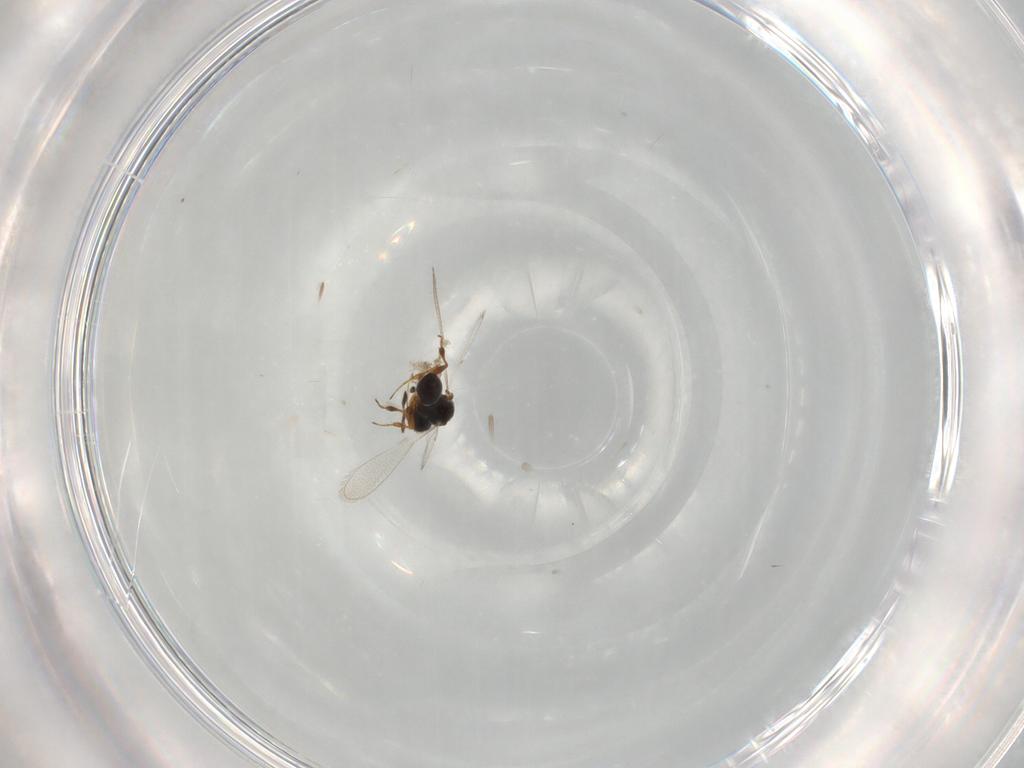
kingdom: Animalia
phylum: Arthropoda
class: Insecta
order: Hymenoptera
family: Platygastridae
